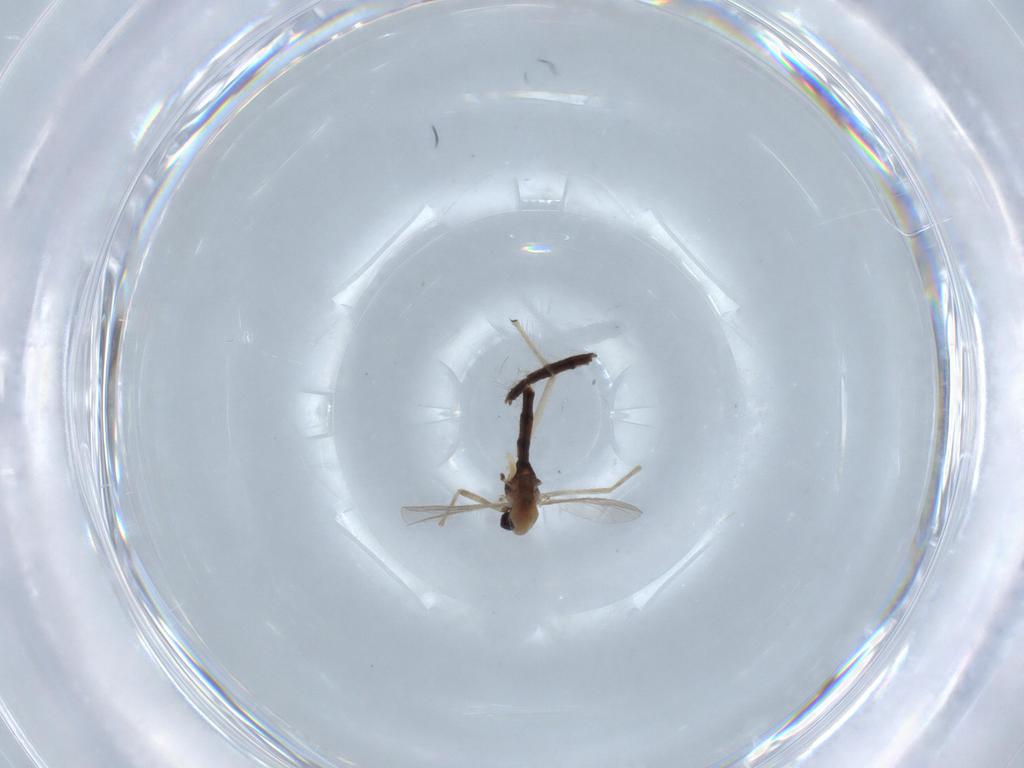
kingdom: Animalia
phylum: Arthropoda
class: Insecta
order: Diptera
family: Chironomidae
